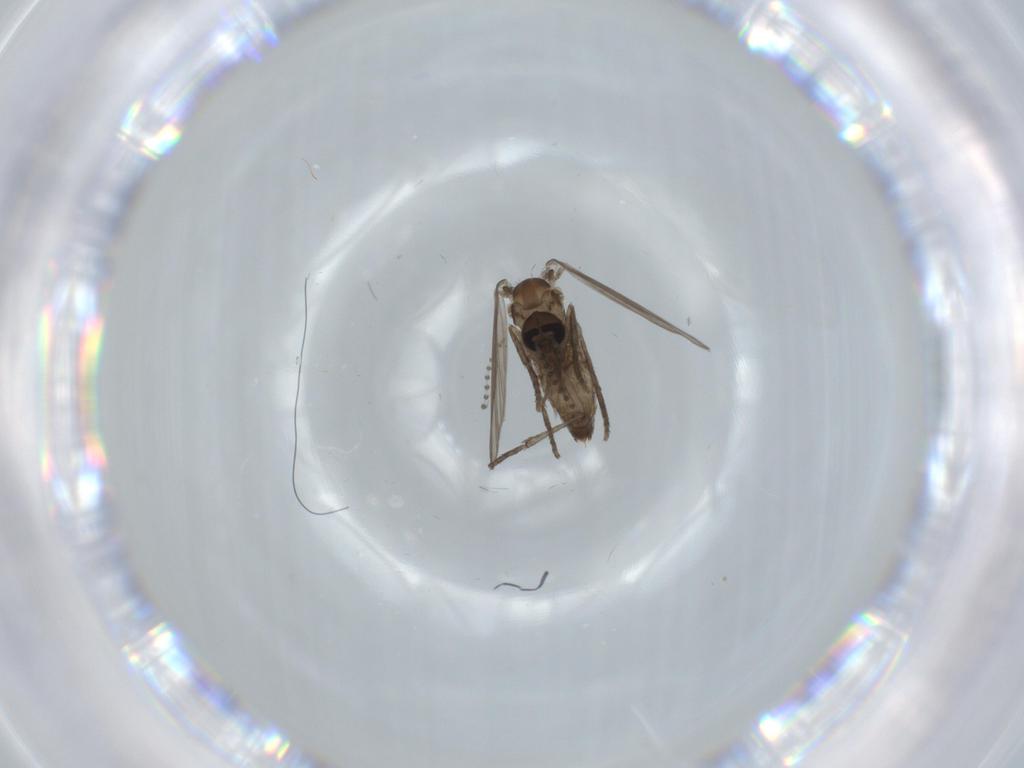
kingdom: Animalia
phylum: Arthropoda
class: Insecta
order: Diptera
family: Psychodidae
